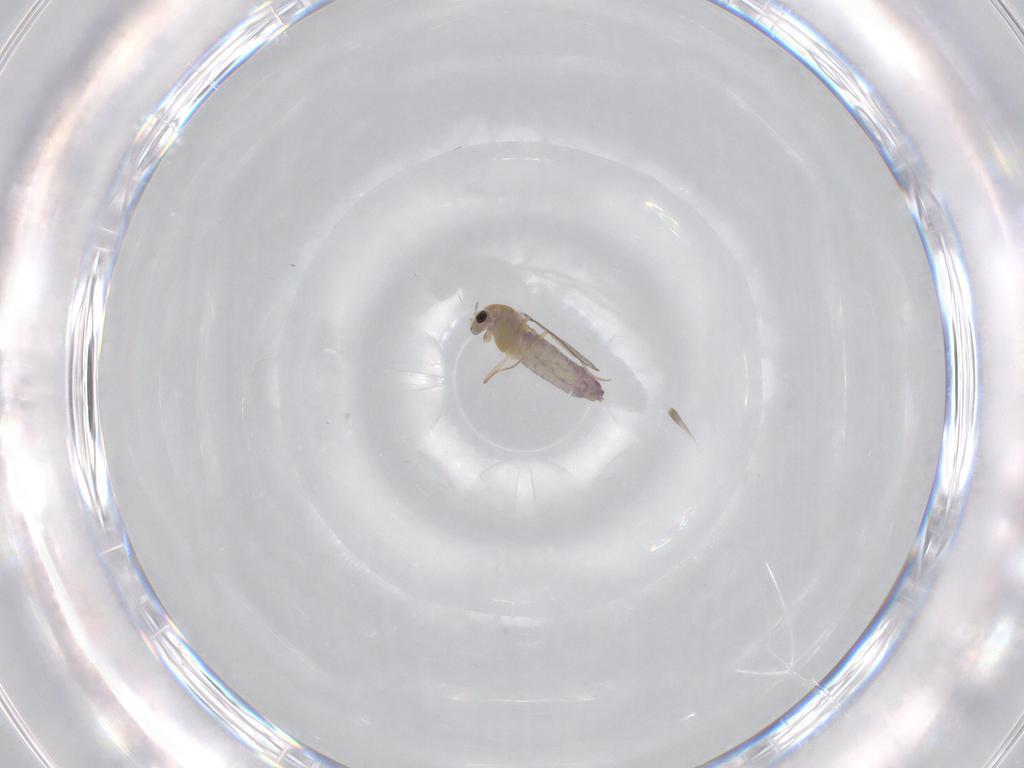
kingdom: Animalia
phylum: Arthropoda
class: Insecta
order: Diptera
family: Chironomidae
